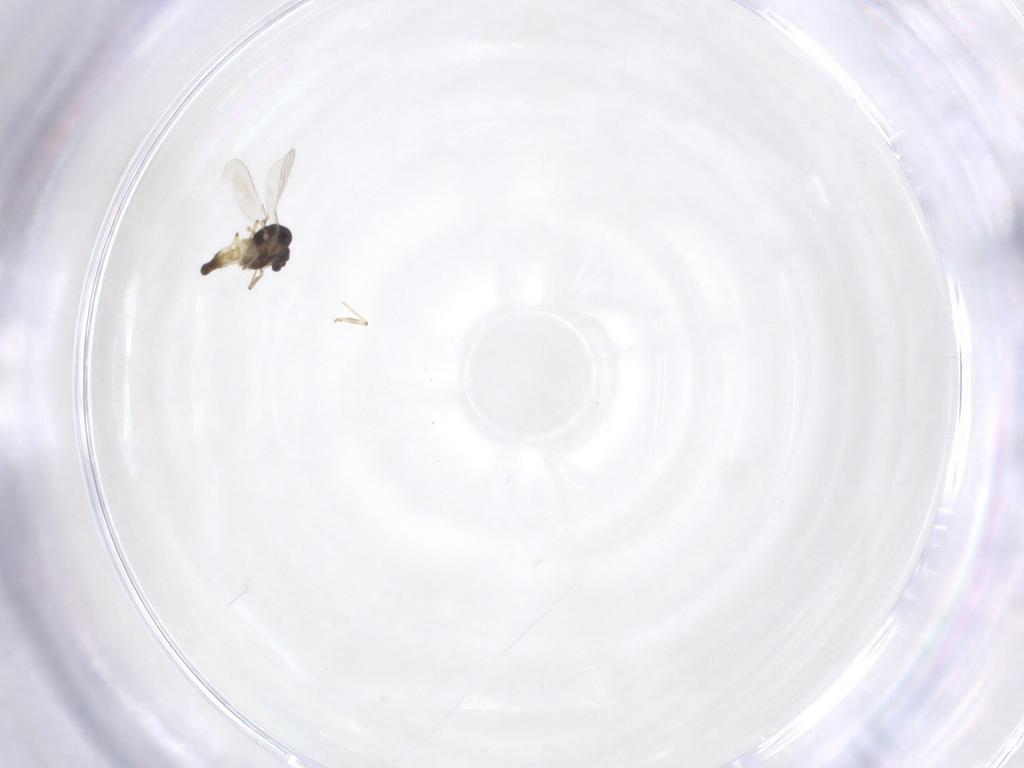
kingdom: Animalia
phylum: Arthropoda
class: Insecta
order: Diptera
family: Chironomidae
